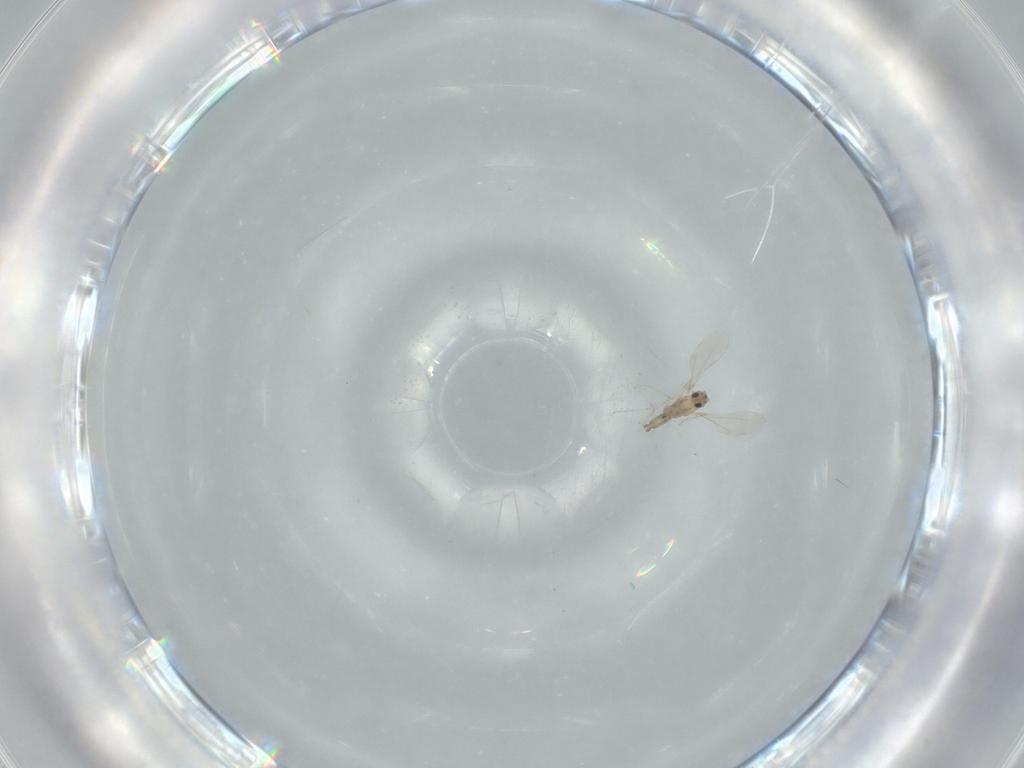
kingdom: Animalia
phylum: Arthropoda
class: Insecta
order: Diptera
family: Cecidomyiidae
